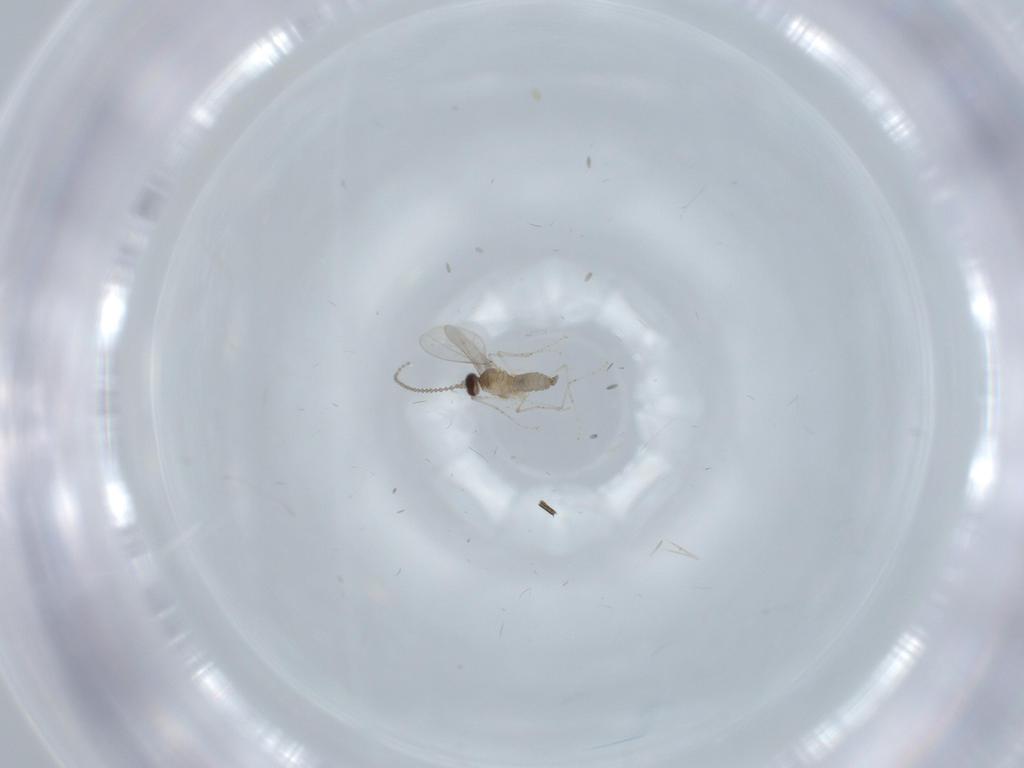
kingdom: Animalia
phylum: Arthropoda
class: Insecta
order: Diptera
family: Cecidomyiidae
